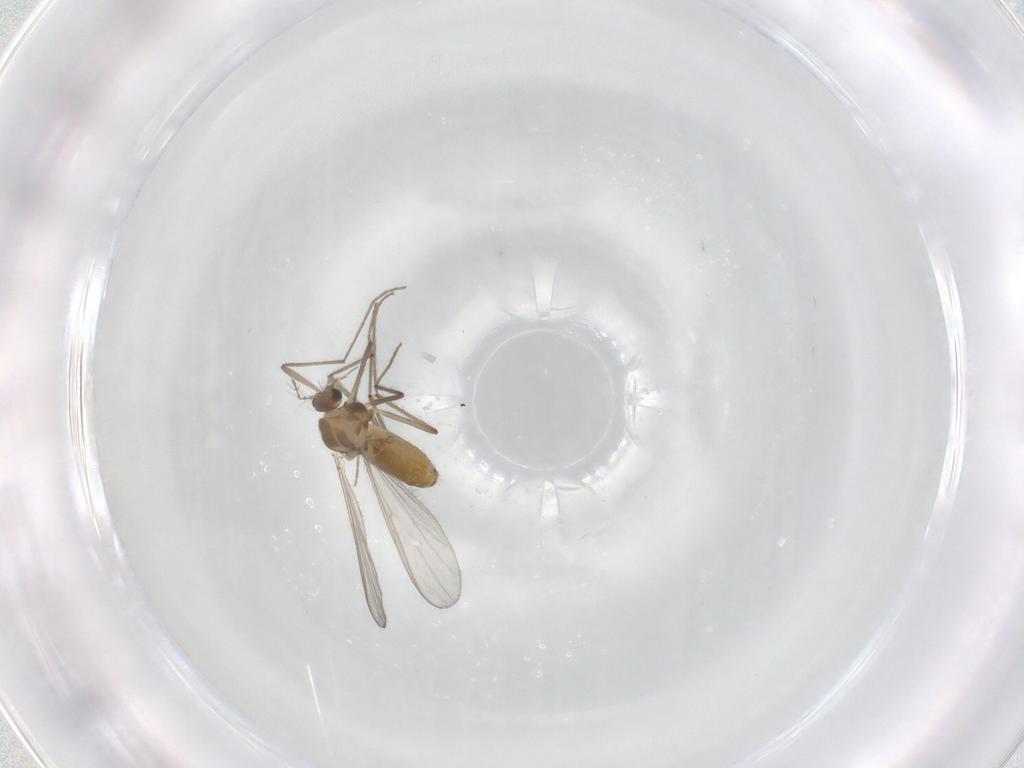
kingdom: Animalia
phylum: Arthropoda
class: Insecta
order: Diptera
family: Chironomidae
